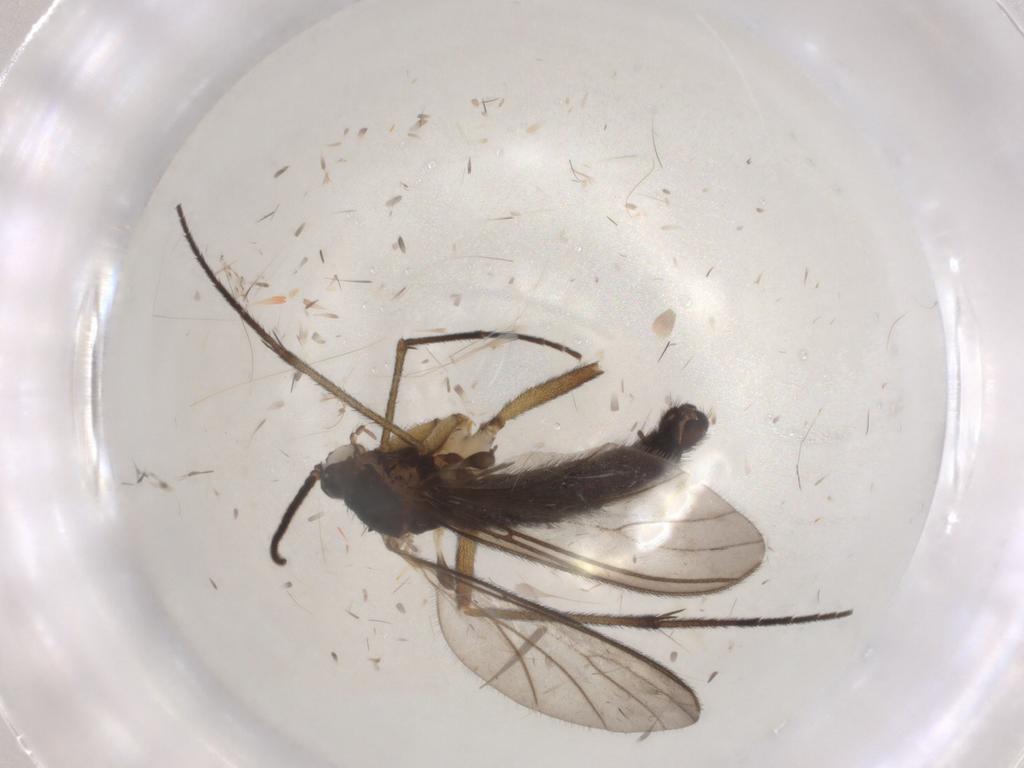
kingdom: Animalia
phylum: Arthropoda
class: Insecta
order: Diptera
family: Sciaridae
